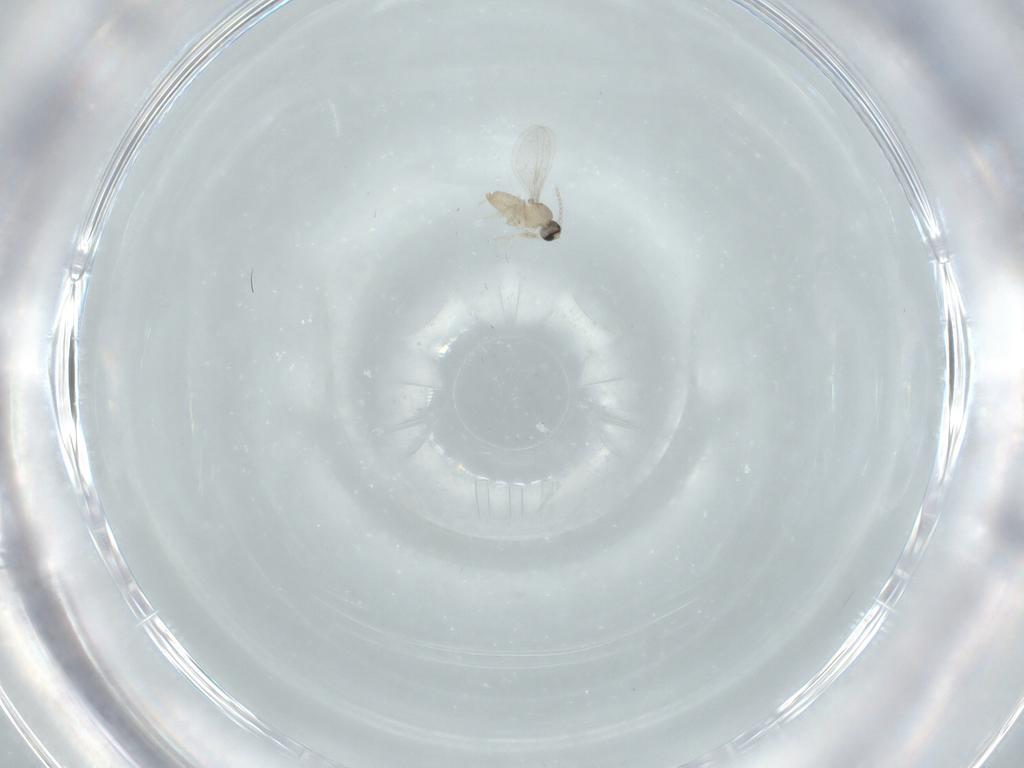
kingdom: Animalia
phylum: Arthropoda
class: Insecta
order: Diptera
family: Cecidomyiidae
